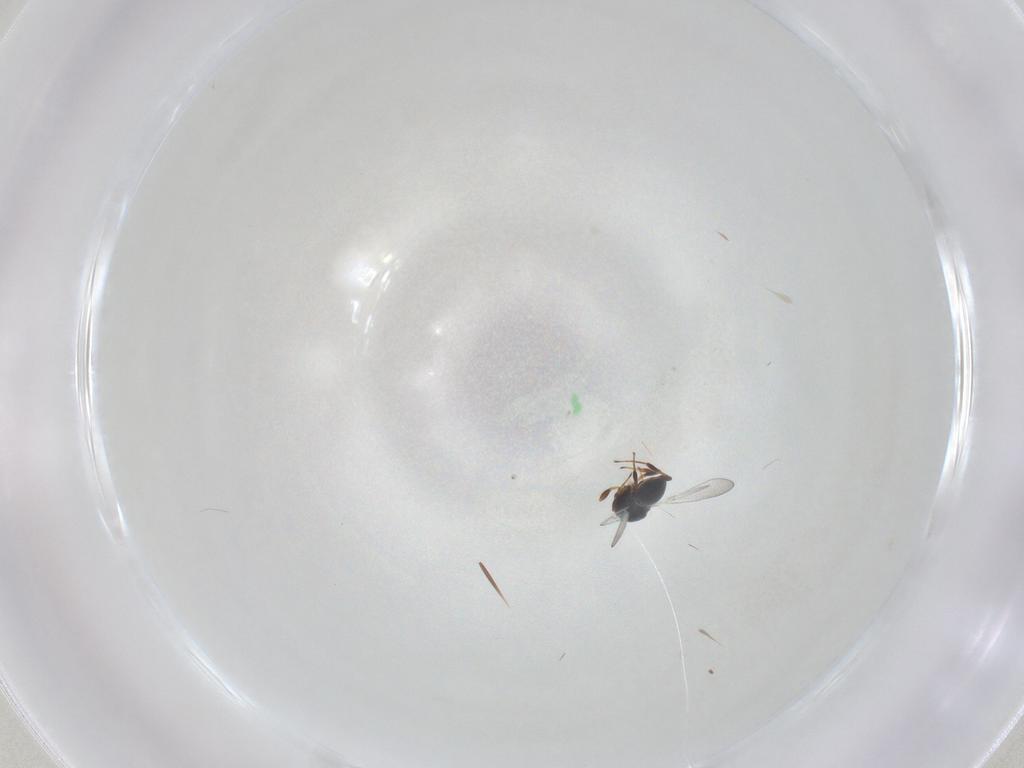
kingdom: Animalia
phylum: Arthropoda
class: Insecta
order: Hymenoptera
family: Platygastridae
